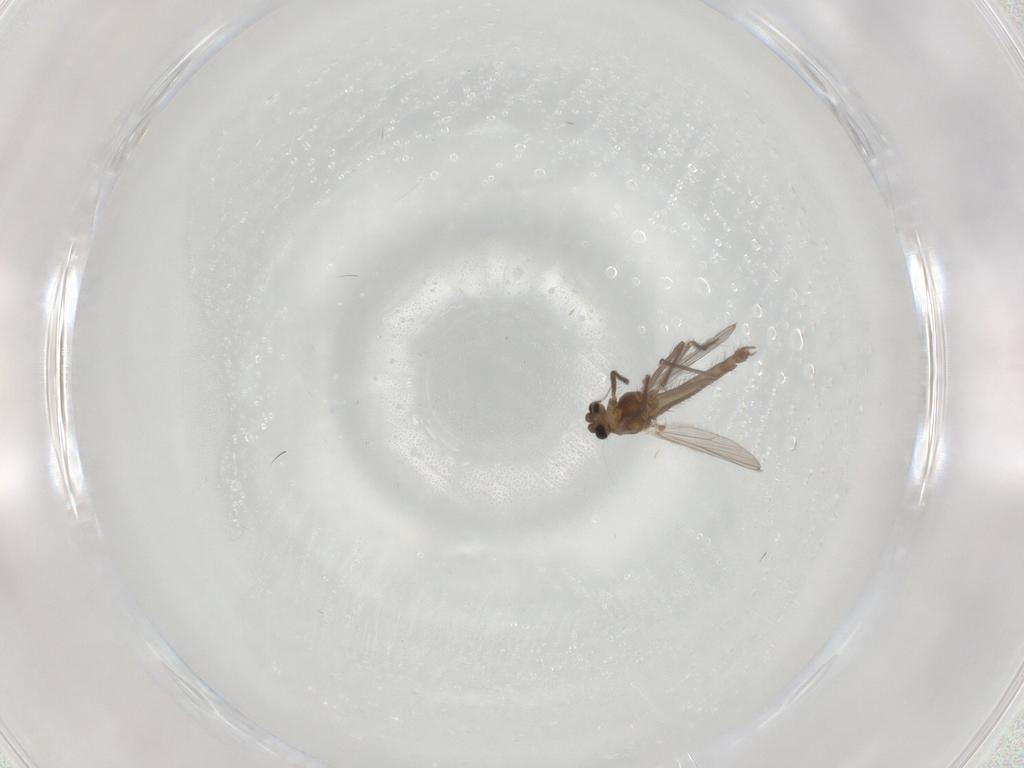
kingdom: Animalia
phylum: Arthropoda
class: Insecta
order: Diptera
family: Chironomidae
